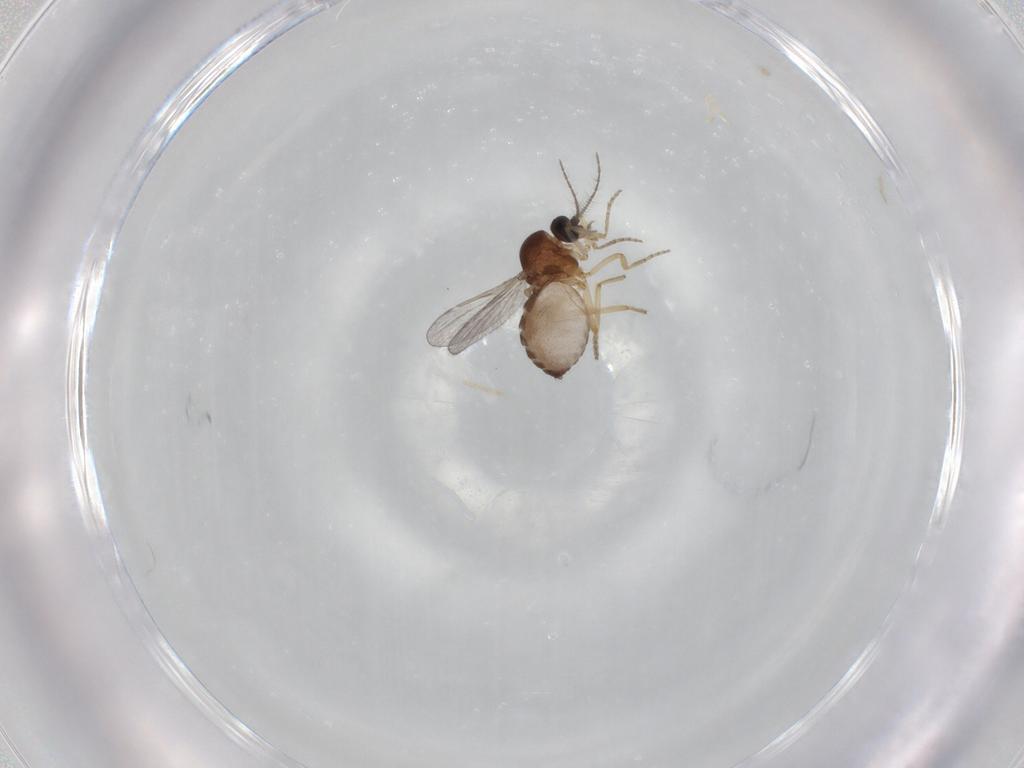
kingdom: Animalia
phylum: Arthropoda
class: Insecta
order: Diptera
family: Ceratopogonidae
